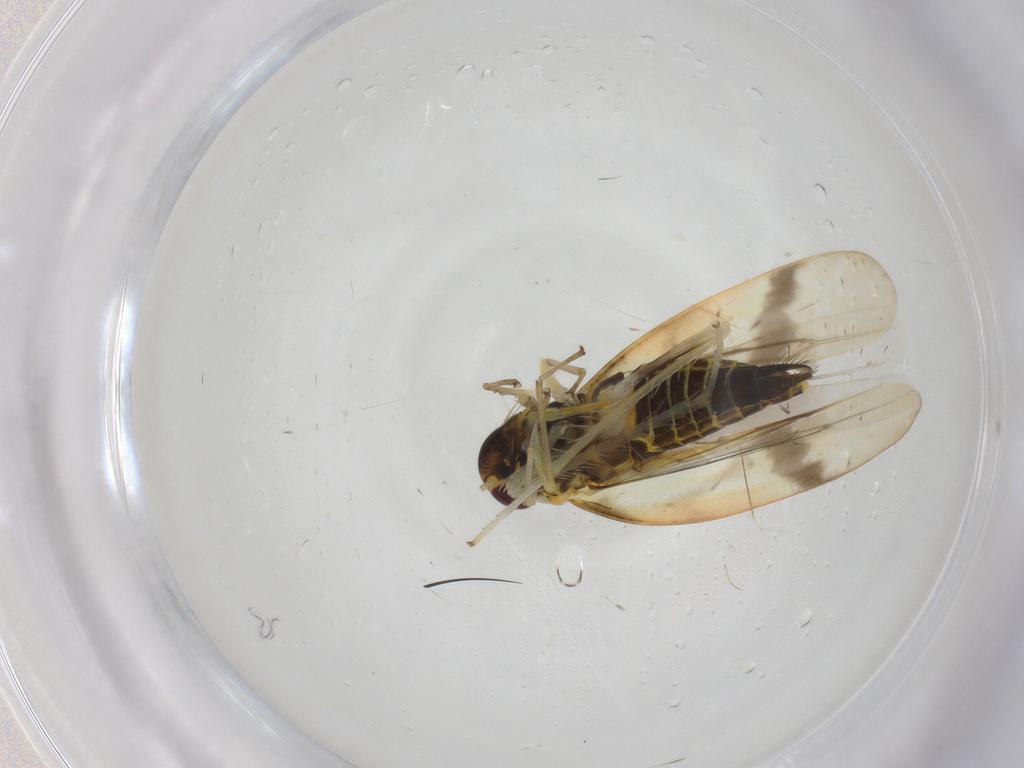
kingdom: Animalia
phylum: Arthropoda
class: Insecta
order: Hemiptera
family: Cicadellidae
